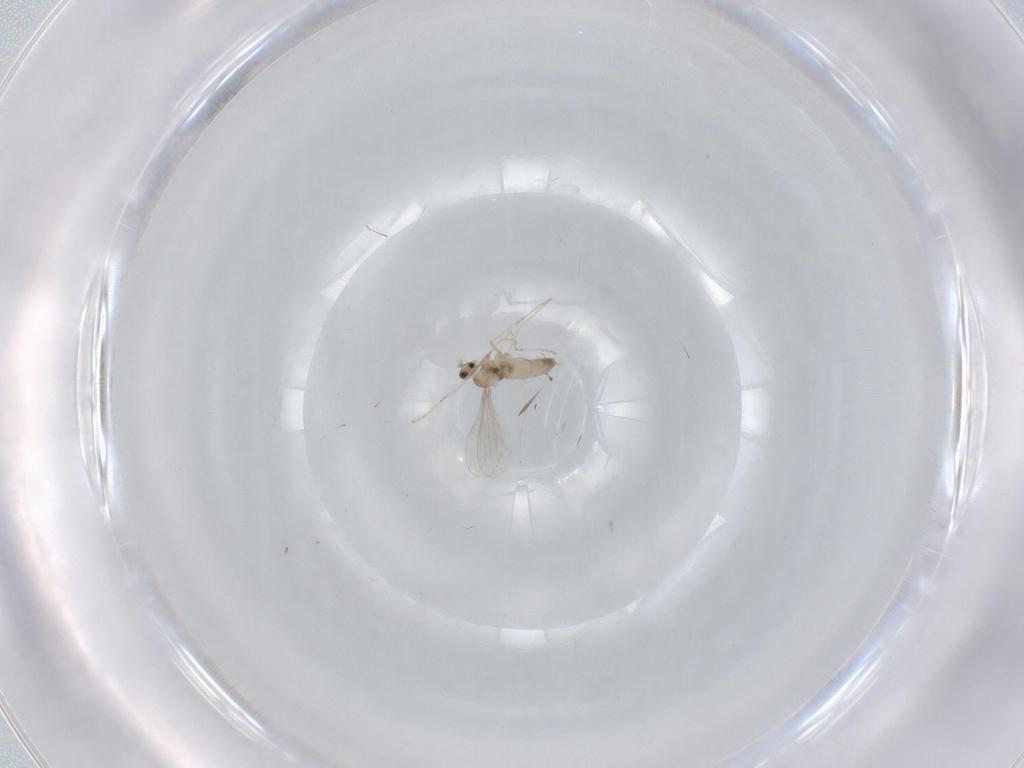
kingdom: Animalia
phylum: Arthropoda
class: Insecta
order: Diptera
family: Cecidomyiidae
